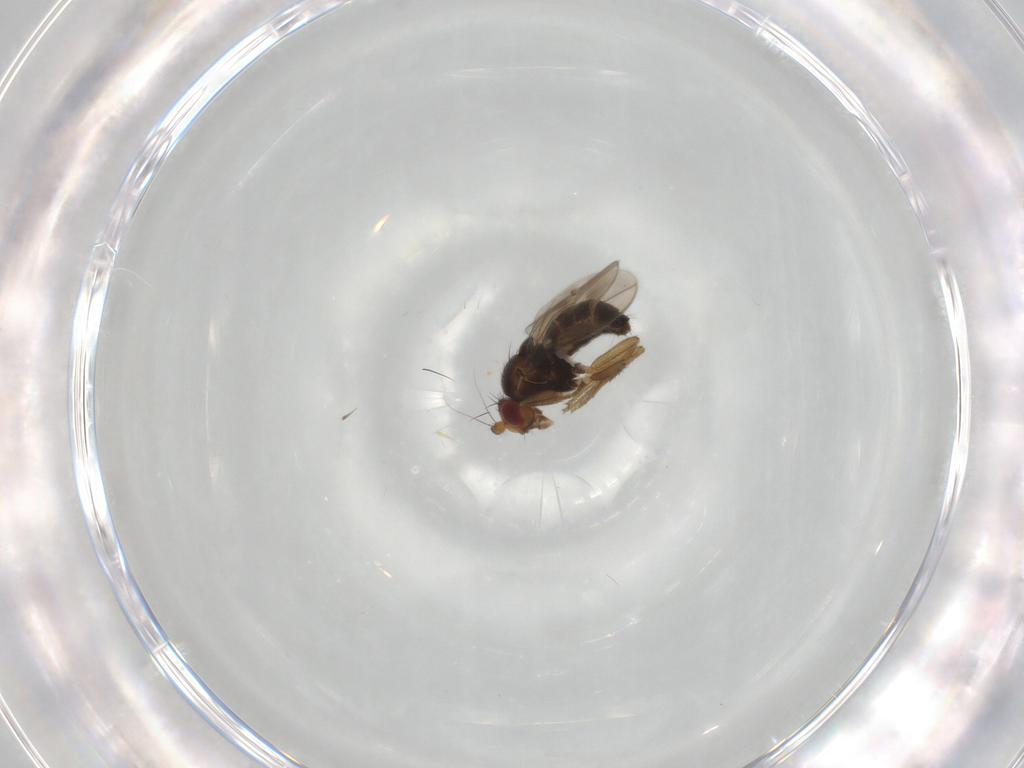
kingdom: Animalia
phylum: Arthropoda
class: Insecta
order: Diptera
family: Sphaeroceridae
